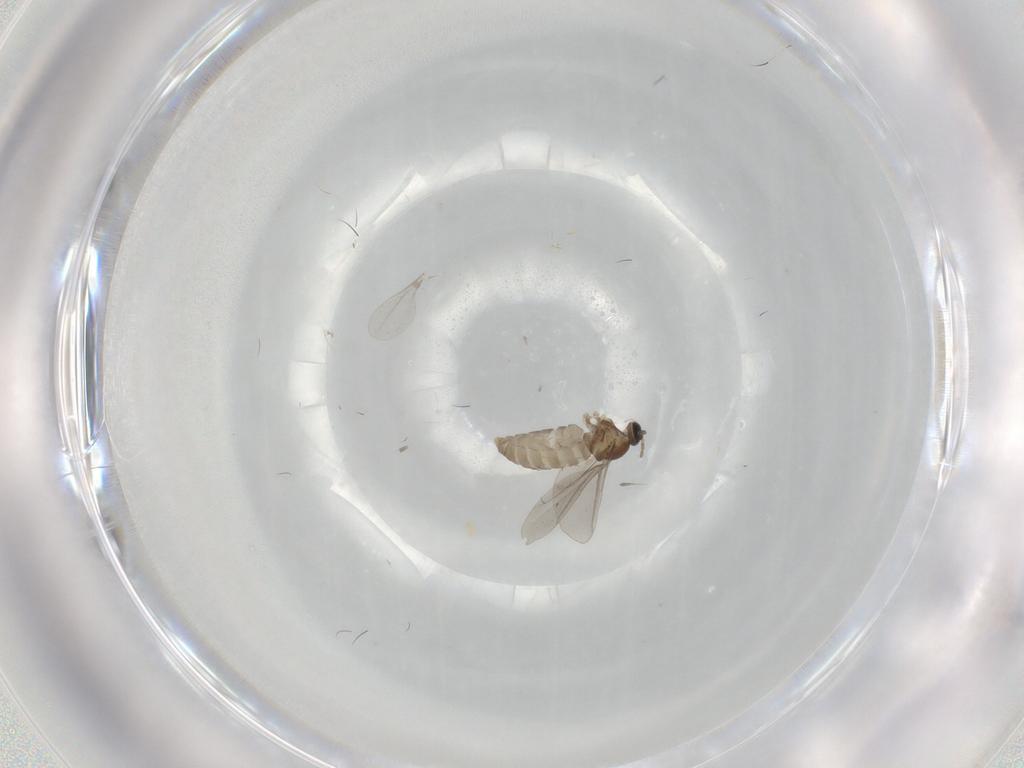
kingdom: Animalia
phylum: Arthropoda
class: Insecta
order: Diptera
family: Cecidomyiidae
